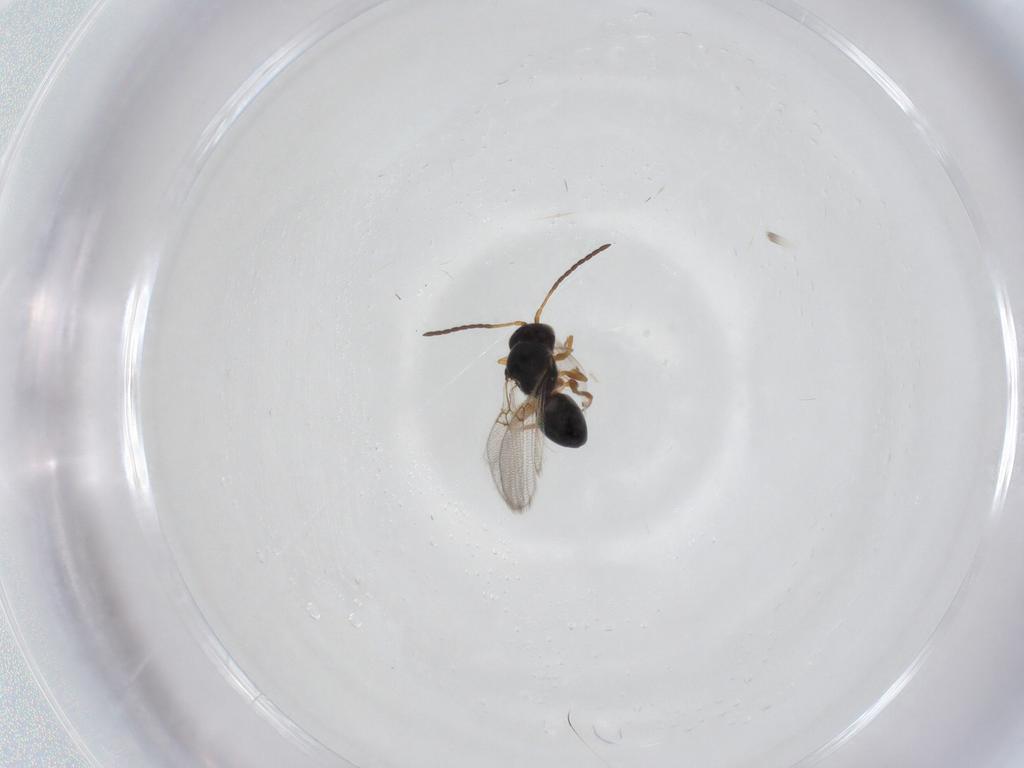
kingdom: Animalia
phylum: Arthropoda
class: Insecta
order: Hymenoptera
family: Figitidae
